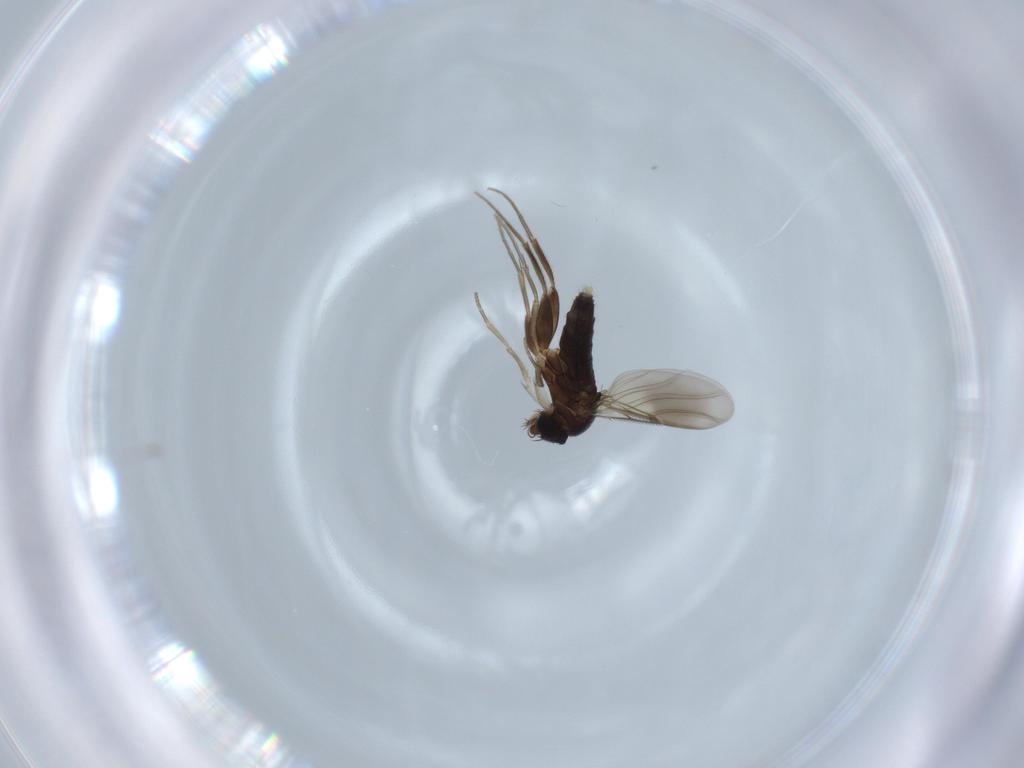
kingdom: Animalia
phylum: Arthropoda
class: Insecta
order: Diptera
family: Phoridae
